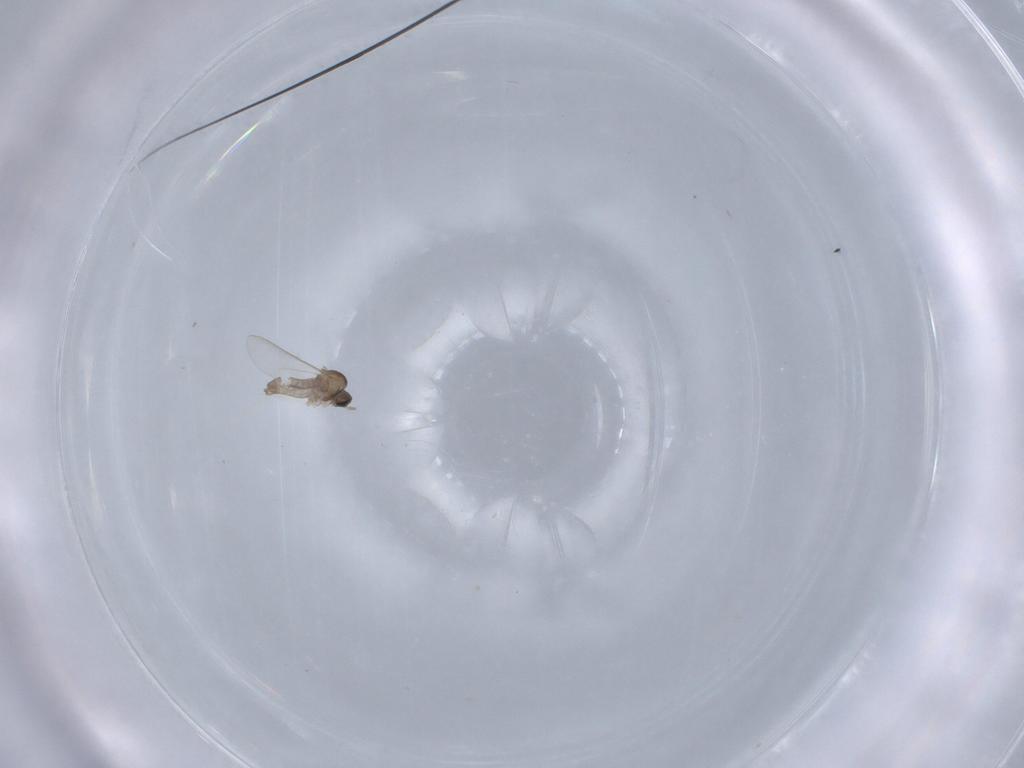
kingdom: Animalia
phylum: Arthropoda
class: Insecta
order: Diptera
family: Cecidomyiidae
